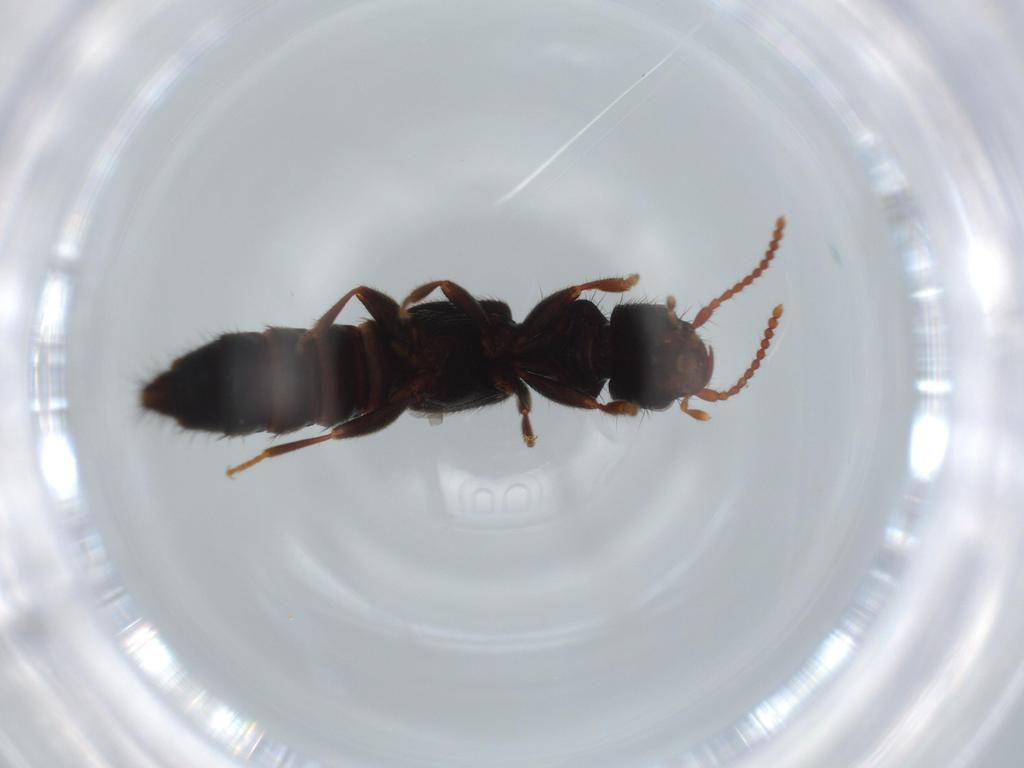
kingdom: Animalia
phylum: Arthropoda
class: Insecta
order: Coleoptera
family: Staphylinidae
